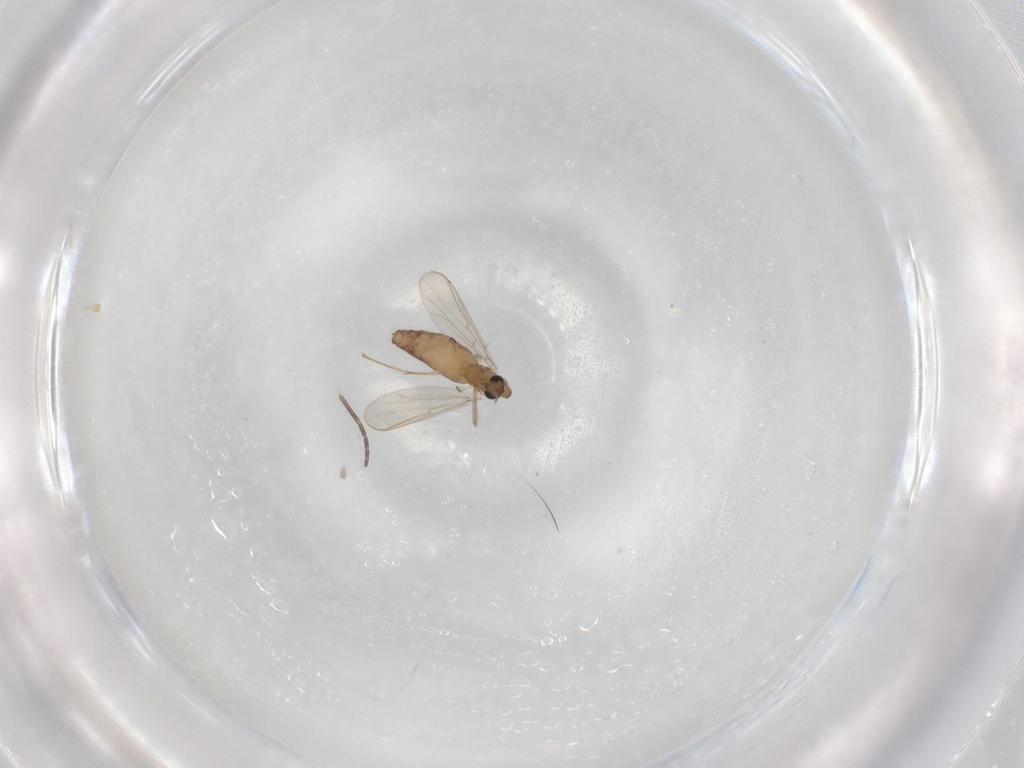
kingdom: Animalia
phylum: Arthropoda
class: Insecta
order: Diptera
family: Chironomidae
